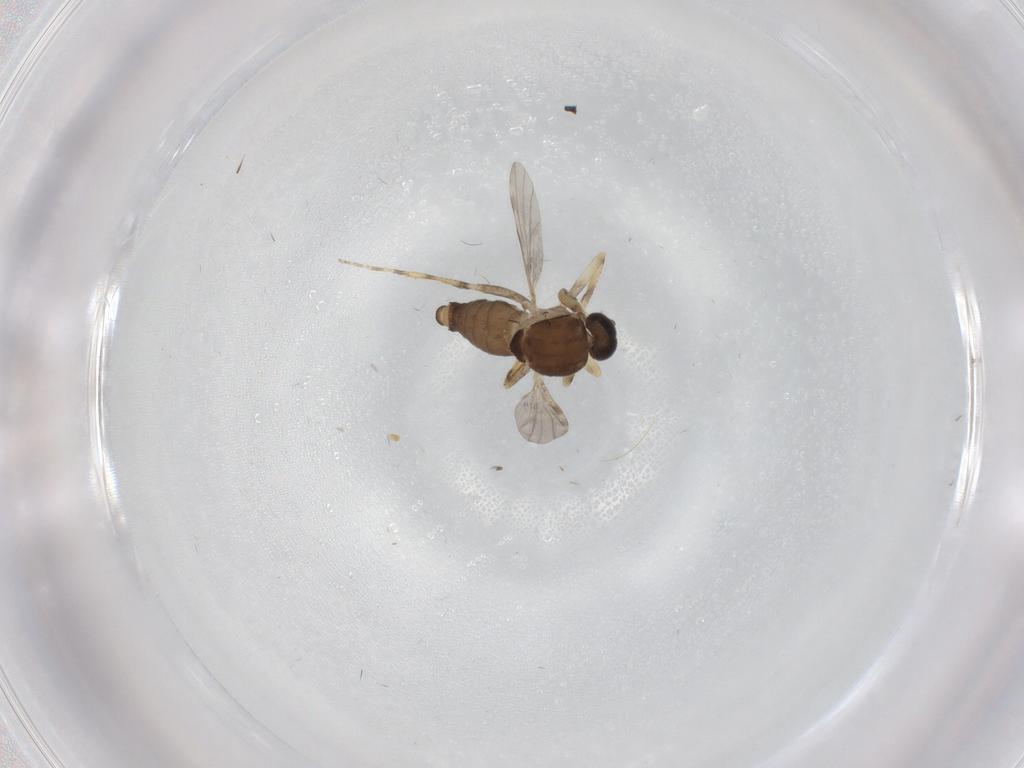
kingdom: Animalia
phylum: Arthropoda
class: Insecta
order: Diptera
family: Ceratopogonidae
